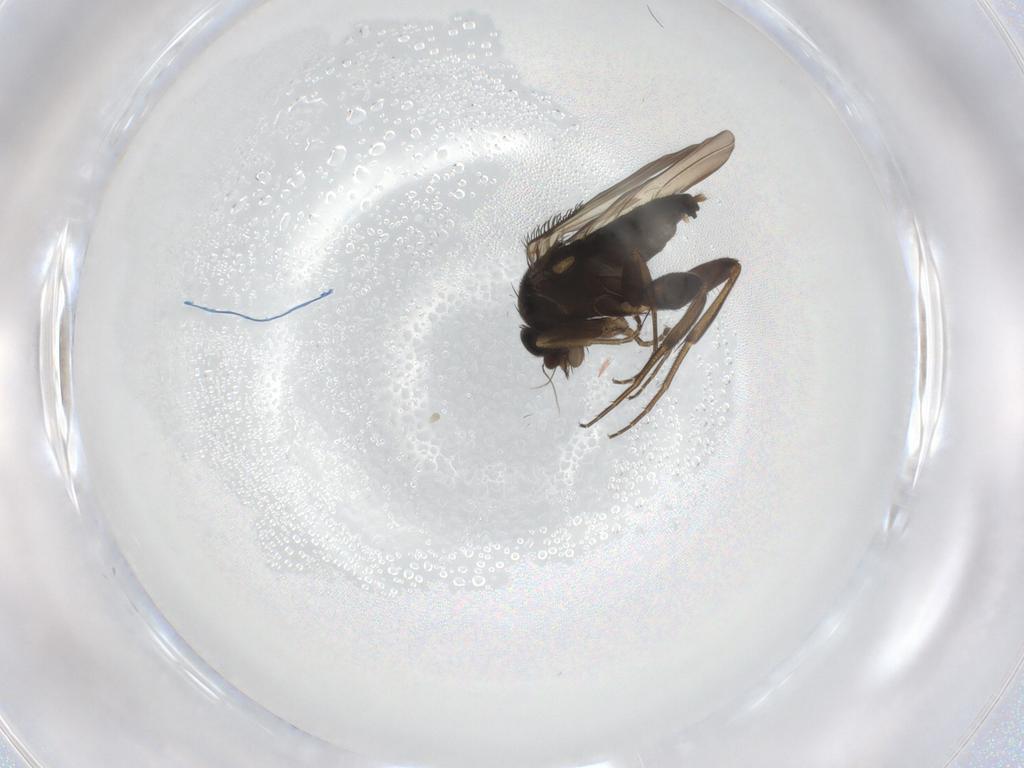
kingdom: Animalia
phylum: Arthropoda
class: Insecta
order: Diptera
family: Phoridae
